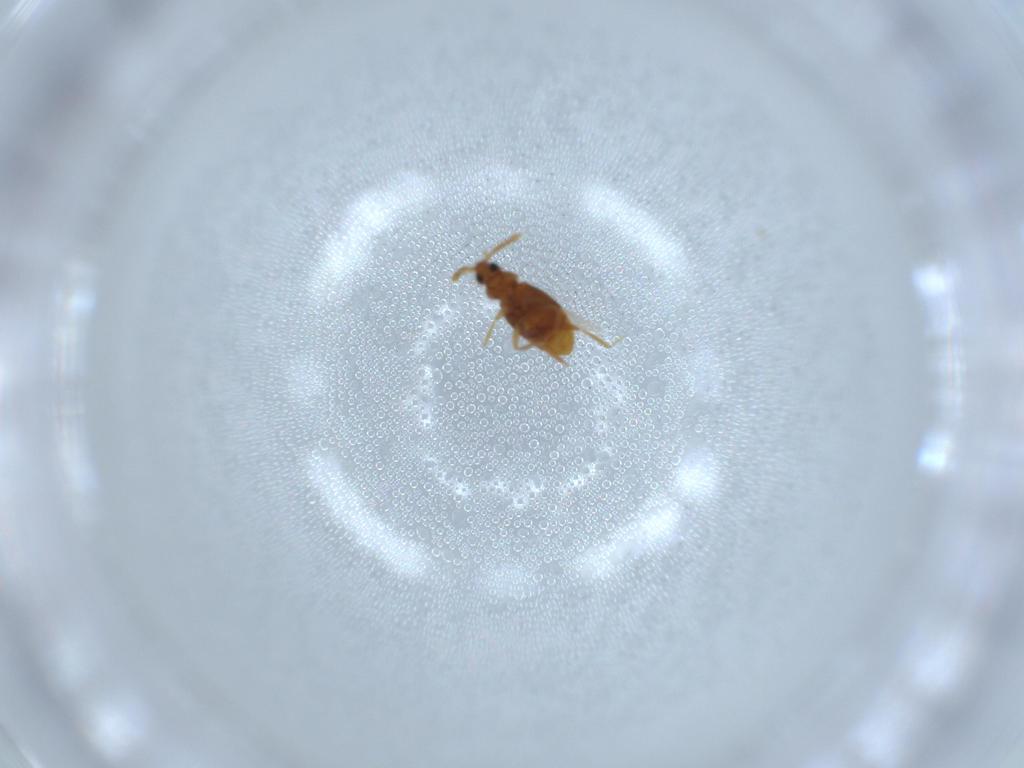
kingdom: Animalia
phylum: Arthropoda
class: Insecta
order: Coleoptera
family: Staphylinidae
